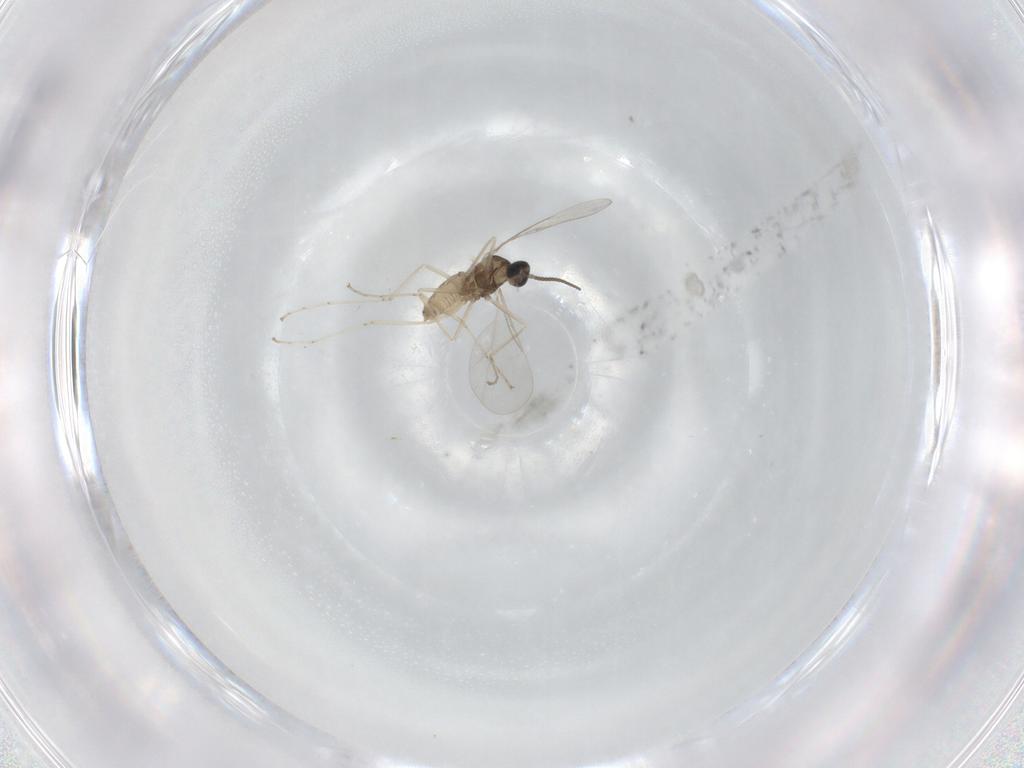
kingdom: Animalia
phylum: Arthropoda
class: Insecta
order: Diptera
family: Cecidomyiidae
